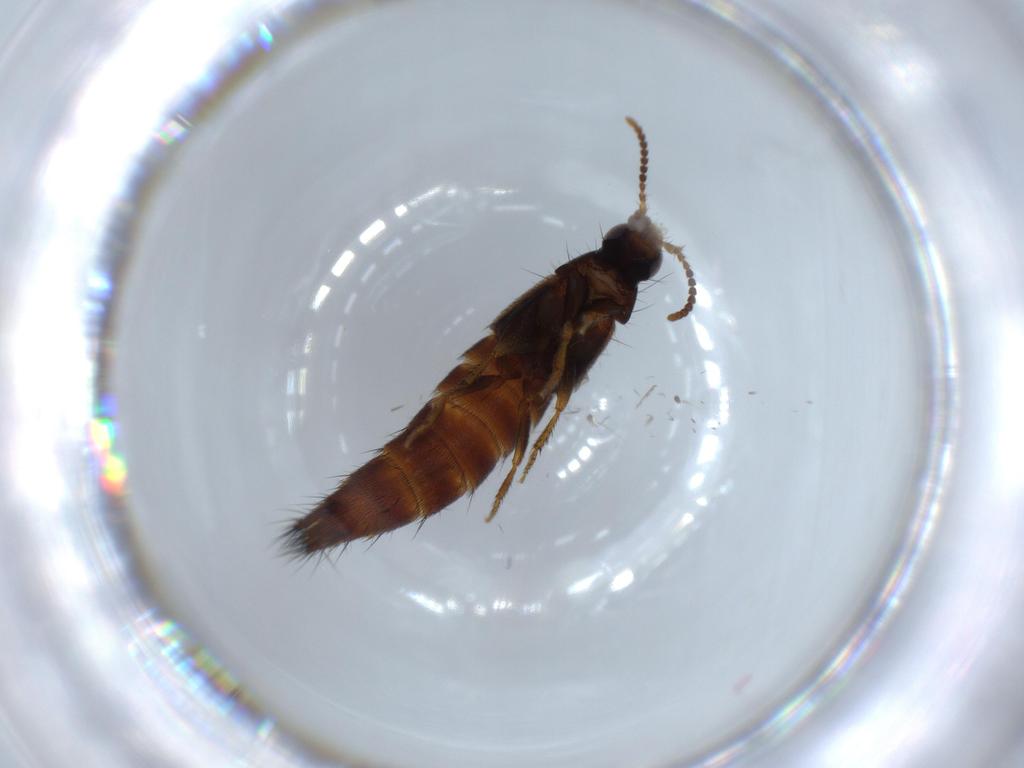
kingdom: Animalia
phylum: Arthropoda
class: Insecta
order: Coleoptera
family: Staphylinidae
